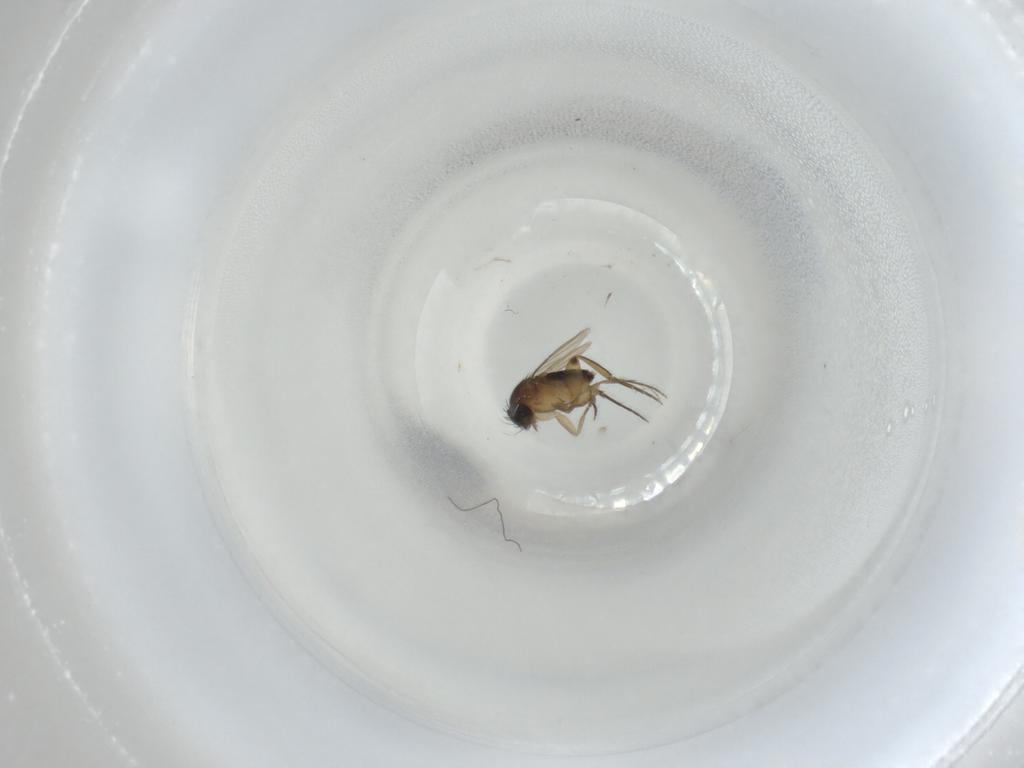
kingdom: Animalia
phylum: Arthropoda
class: Insecta
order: Diptera
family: Phoridae
